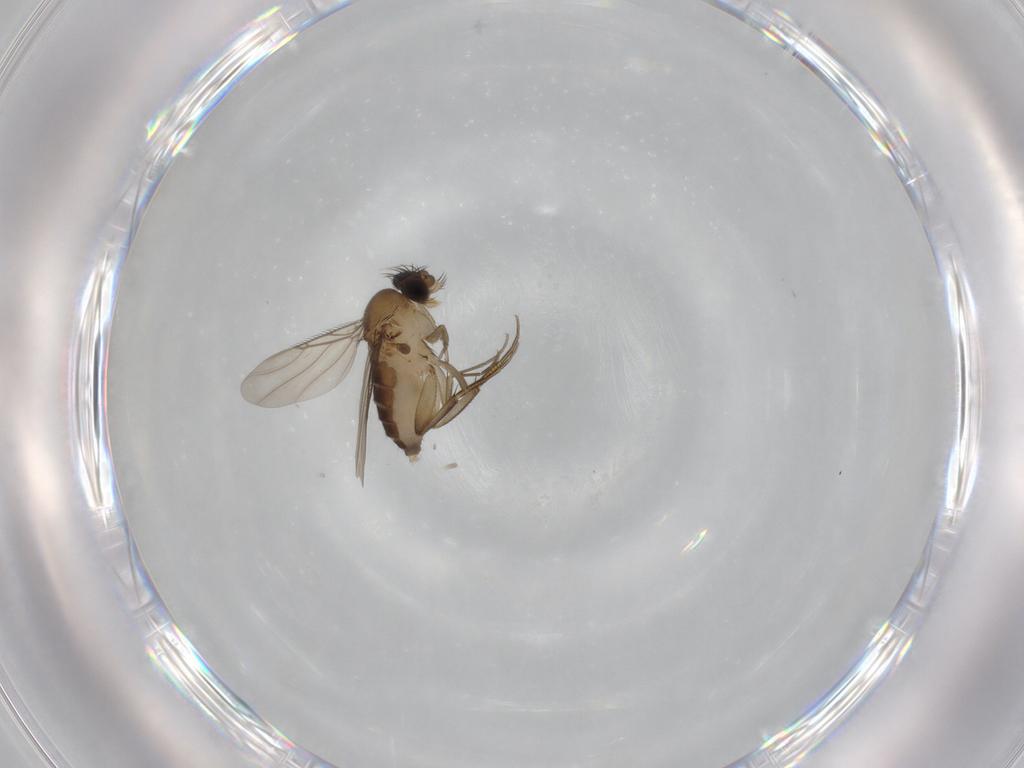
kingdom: Animalia
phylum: Arthropoda
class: Insecta
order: Diptera
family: Phoridae
